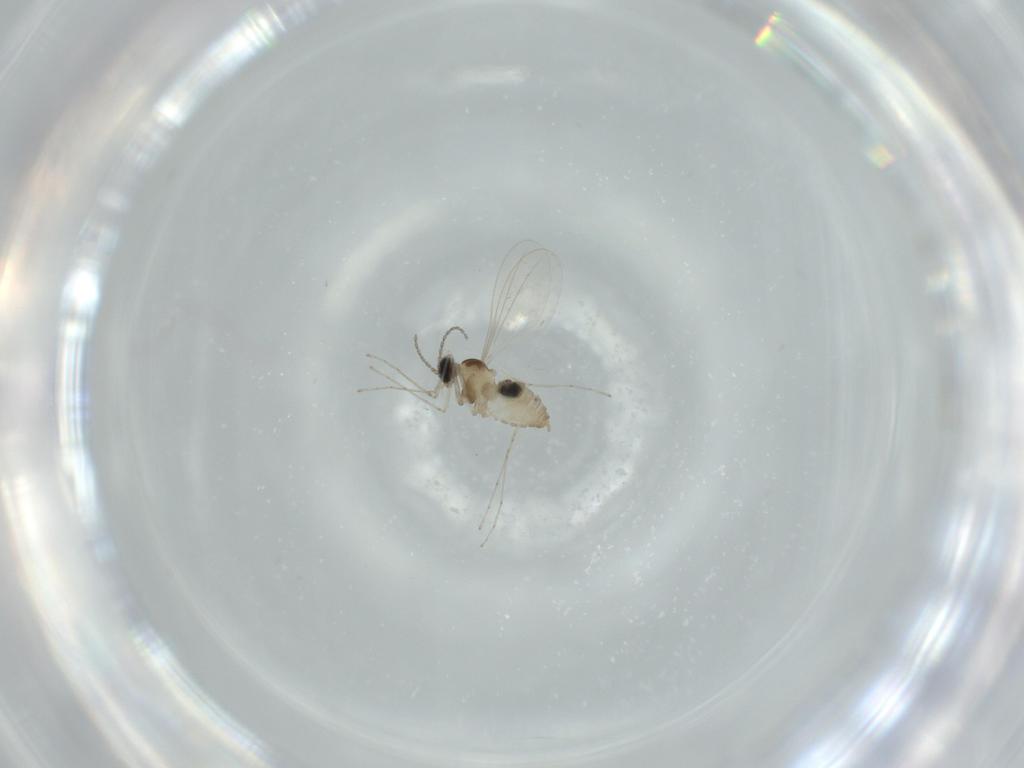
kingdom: Animalia
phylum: Arthropoda
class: Insecta
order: Diptera
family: Cecidomyiidae
